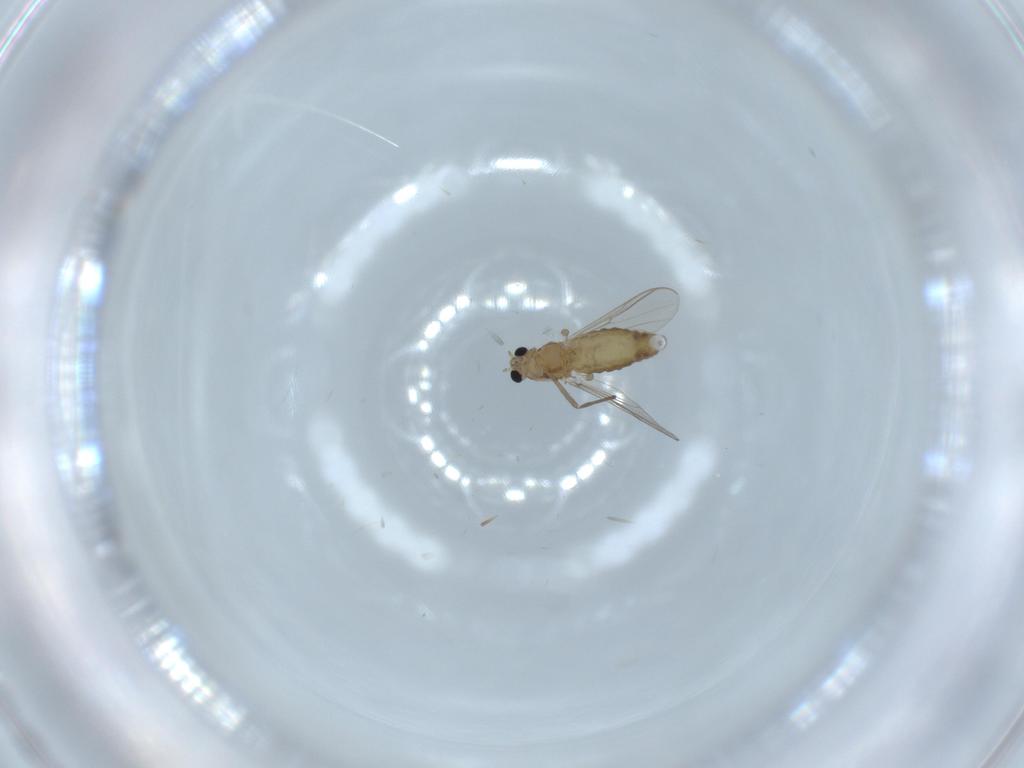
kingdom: Animalia
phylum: Arthropoda
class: Insecta
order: Diptera
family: Chironomidae
